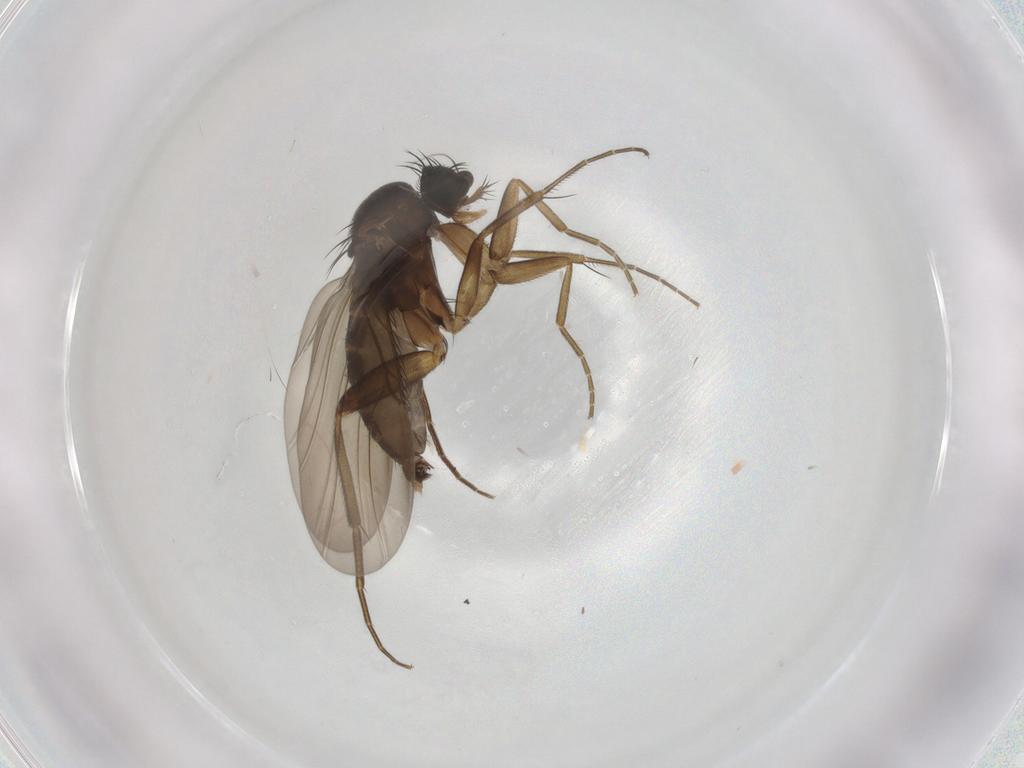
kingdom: Animalia
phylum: Arthropoda
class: Insecta
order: Diptera
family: Phoridae
